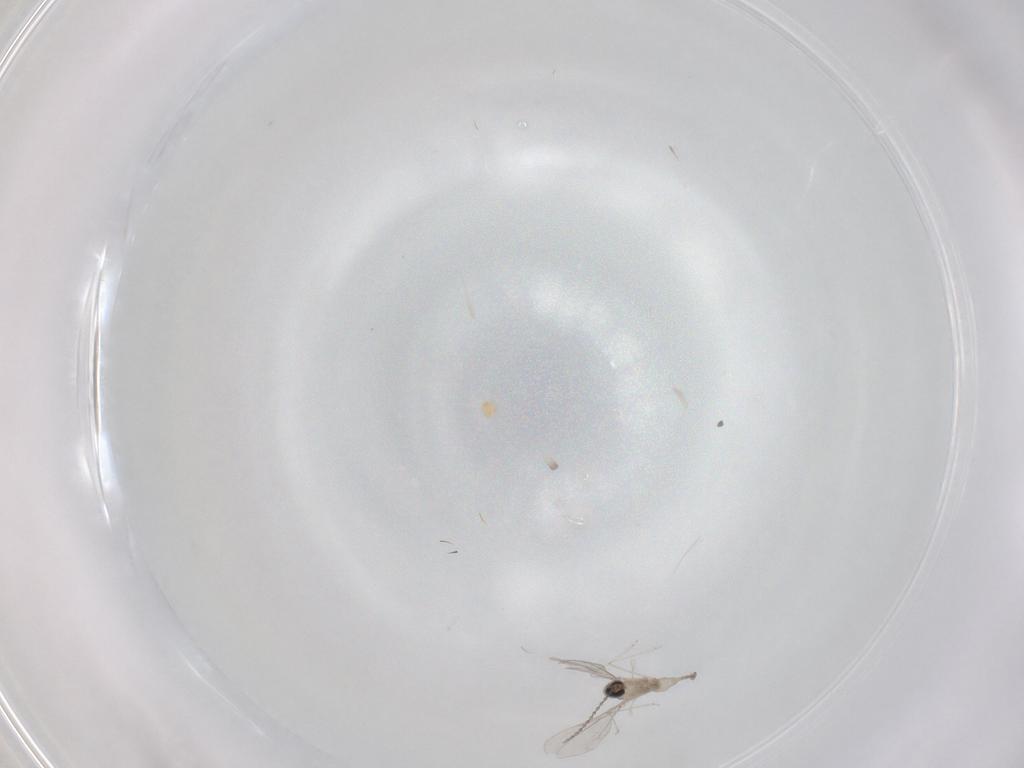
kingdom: Animalia
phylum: Arthropoda
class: Insecta
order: Diptera
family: Cecidomyiidae
